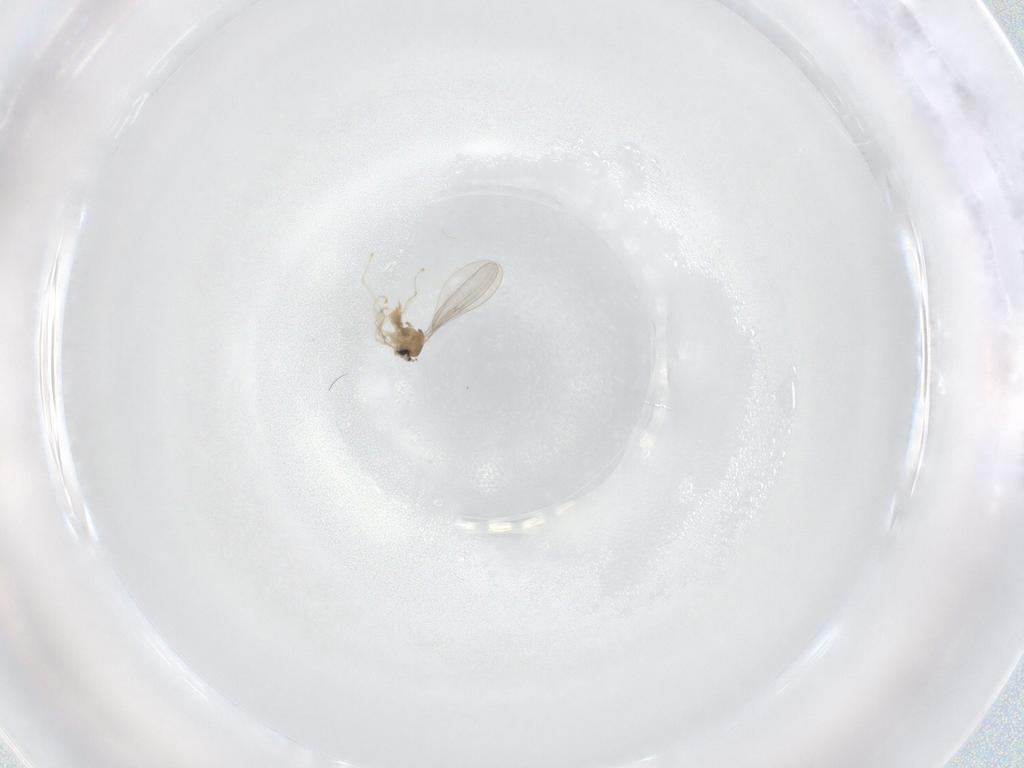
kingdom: Animalia
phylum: Arthropoda
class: Insecta
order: Diptera
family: Cecidomyiidae
